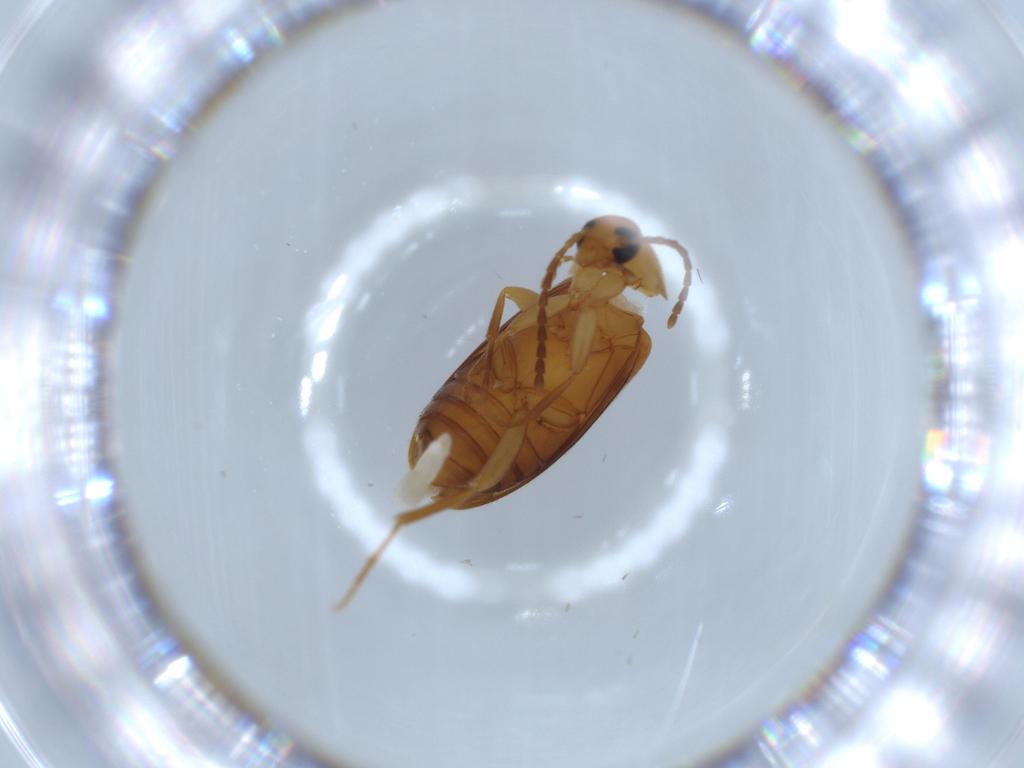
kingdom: Animalia
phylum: Arthropoda
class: Insecta
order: Coleoptera
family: Scraptiidae
